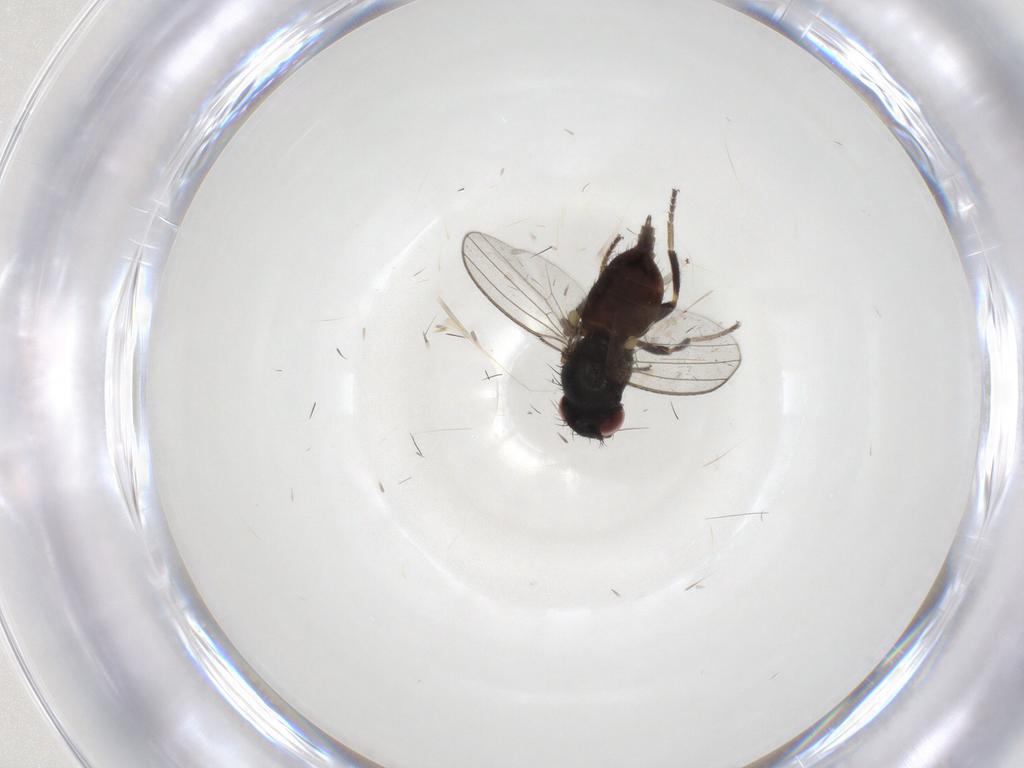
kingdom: Animalia
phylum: Arthropoda
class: Insecta
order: Diptera
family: Milichiidae
